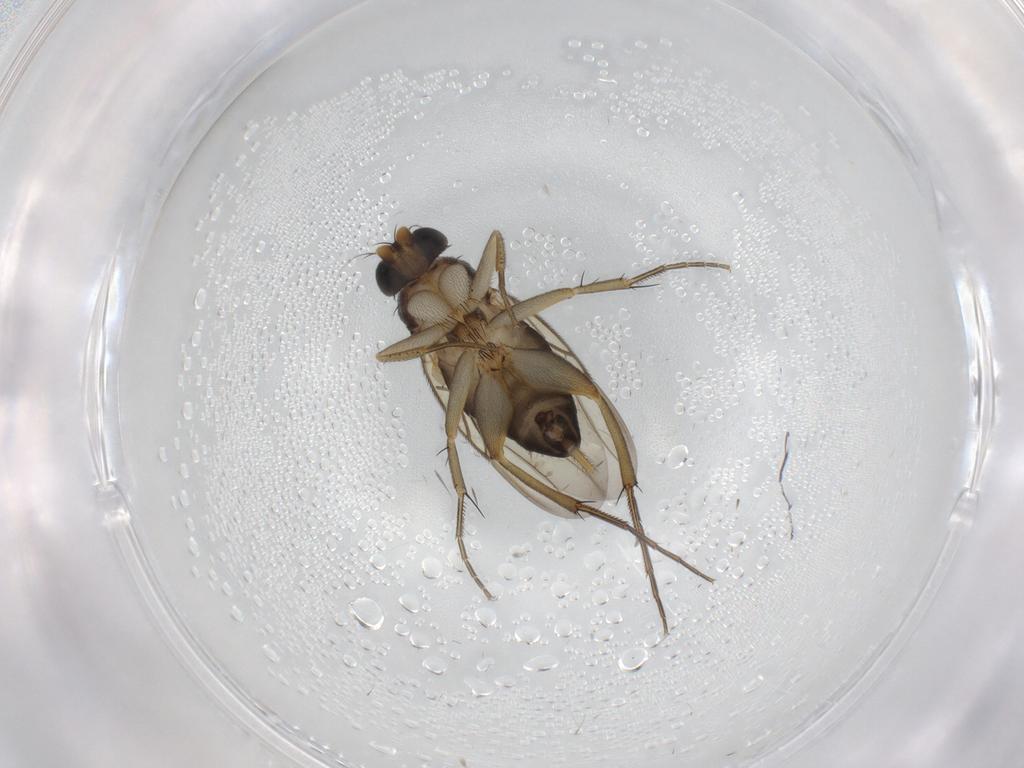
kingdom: Animalia
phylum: Arthropoda
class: Insecta
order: Diptera
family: Phoridae
